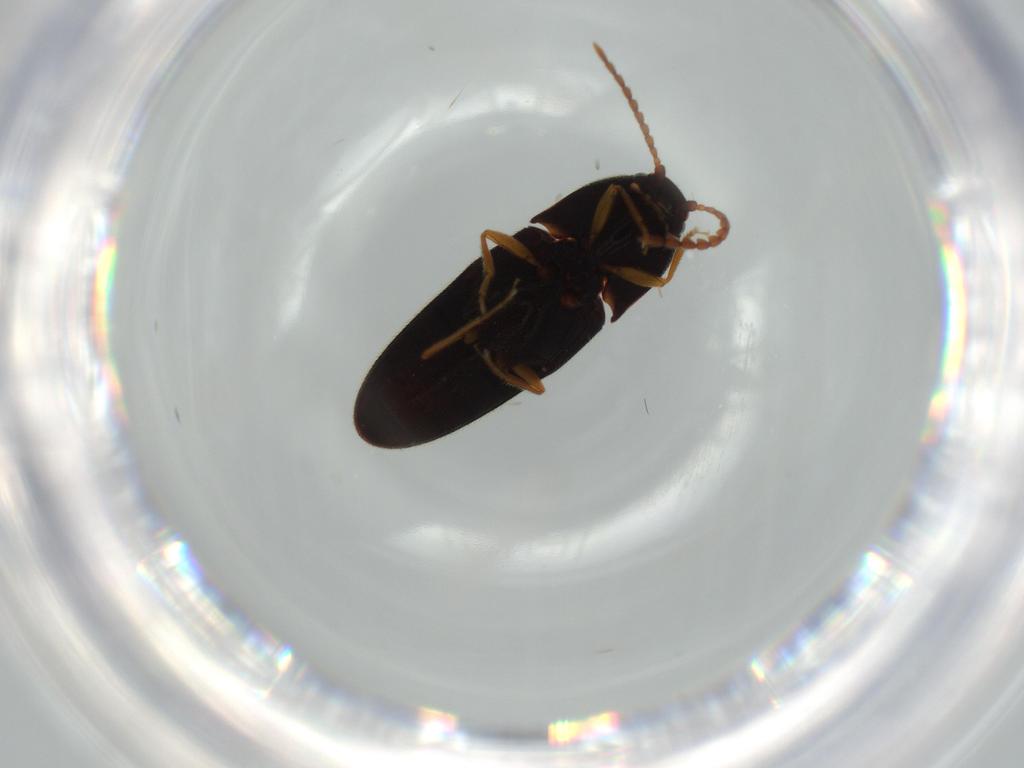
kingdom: Animalia
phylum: Arthropoda
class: Insecta
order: Coleoptera
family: Elateridae
